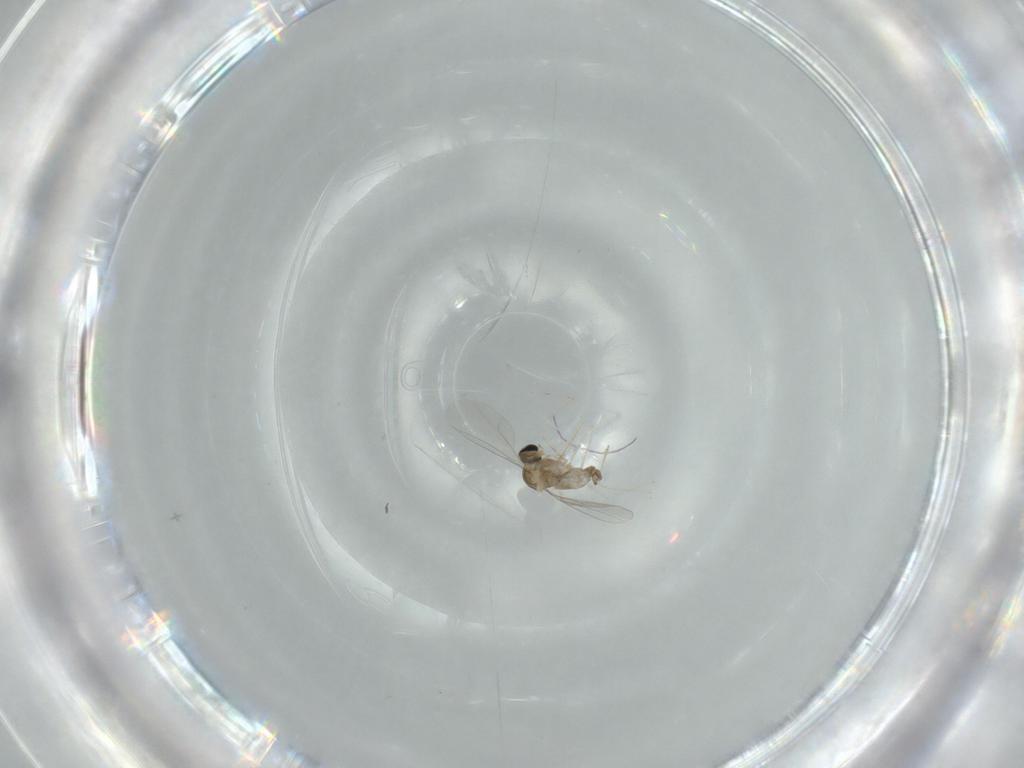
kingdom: Animalia
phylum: Arthropoda
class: Insecta
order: Diptera
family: Cecidomyiidae
